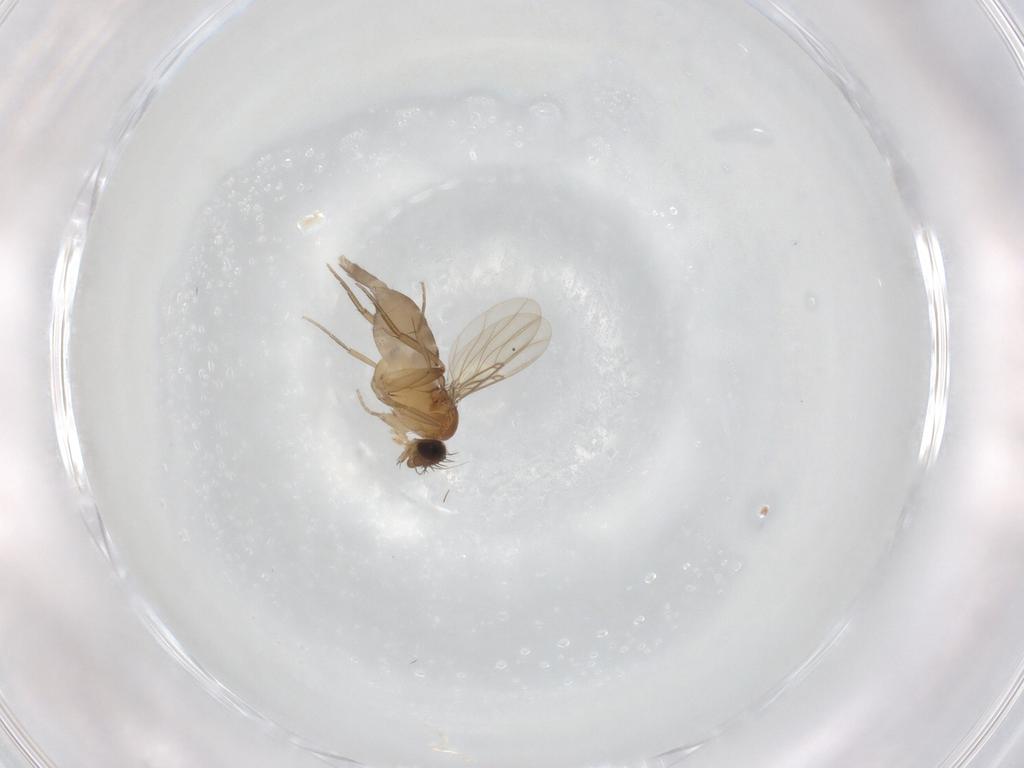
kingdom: Animalia
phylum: Arthropoda
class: Insecta
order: Diptera
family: Phoridae
